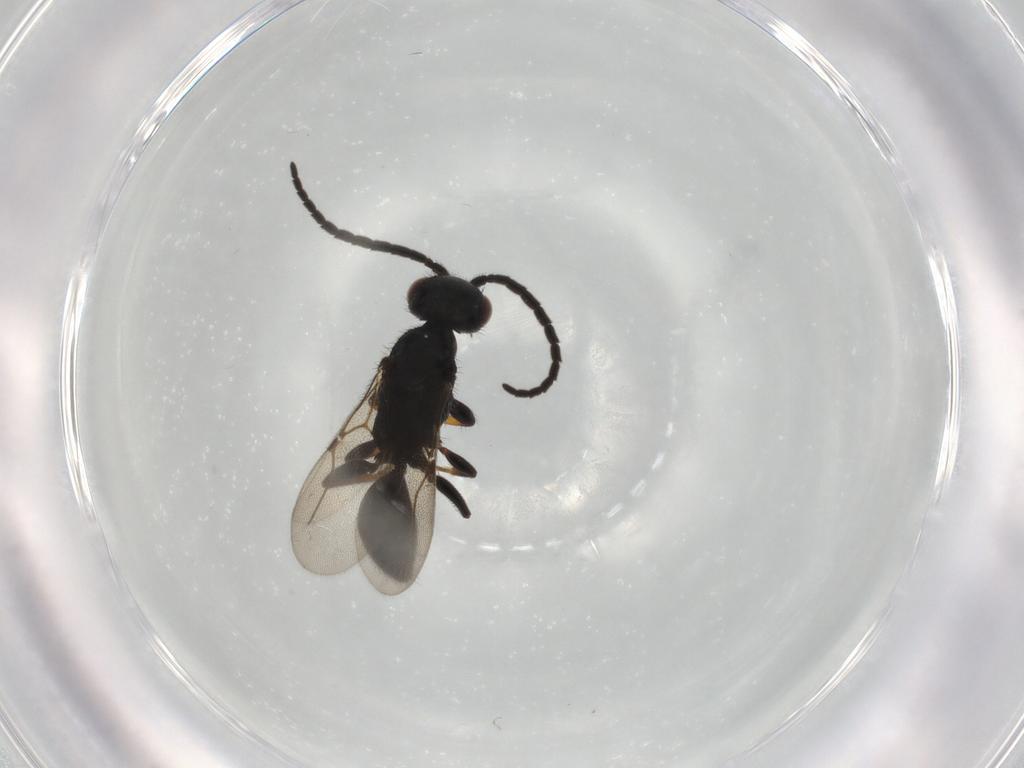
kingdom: Animalia
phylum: Arthropoda
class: Insecta
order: Hymenoptera
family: Bethylidae
